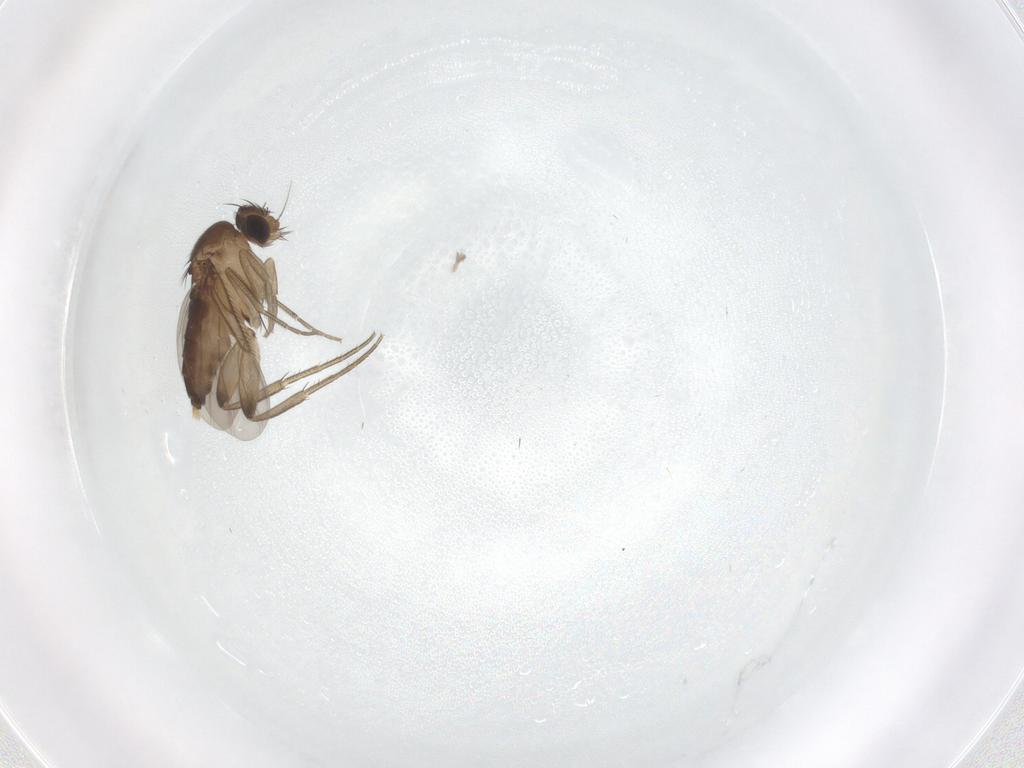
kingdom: Animalia
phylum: Arthropoda
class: Insecta
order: Diptera
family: Phoridae
